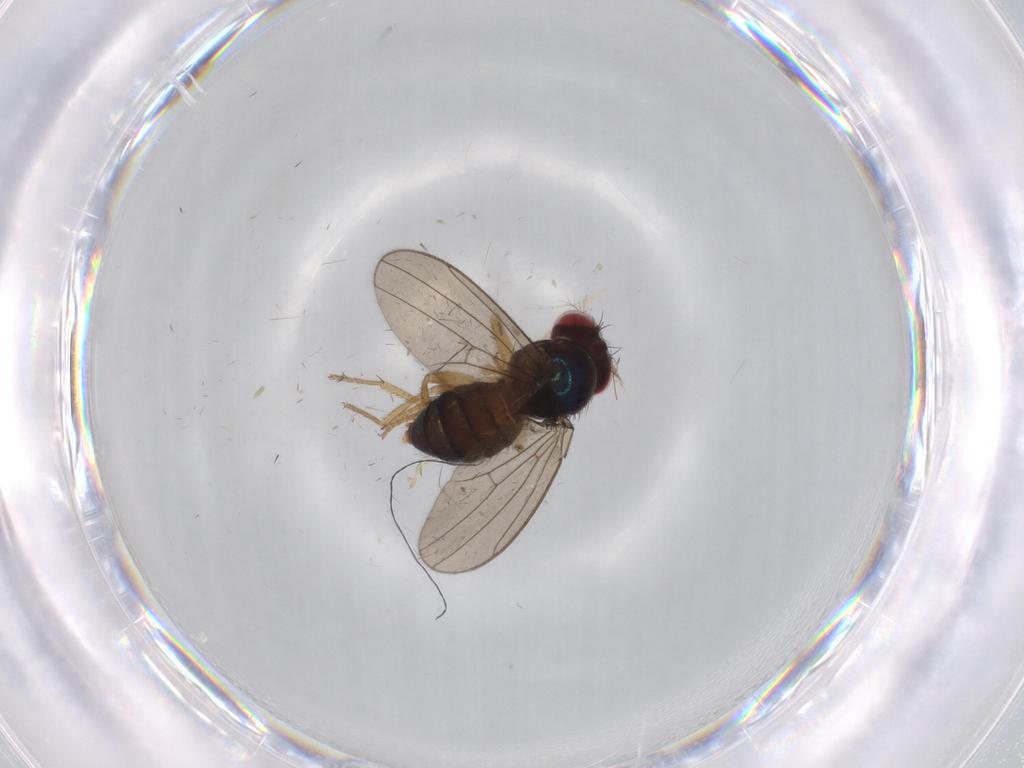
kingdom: Animalia
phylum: Arthropoda
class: Insecta
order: Diptera
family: Drosophilidae
